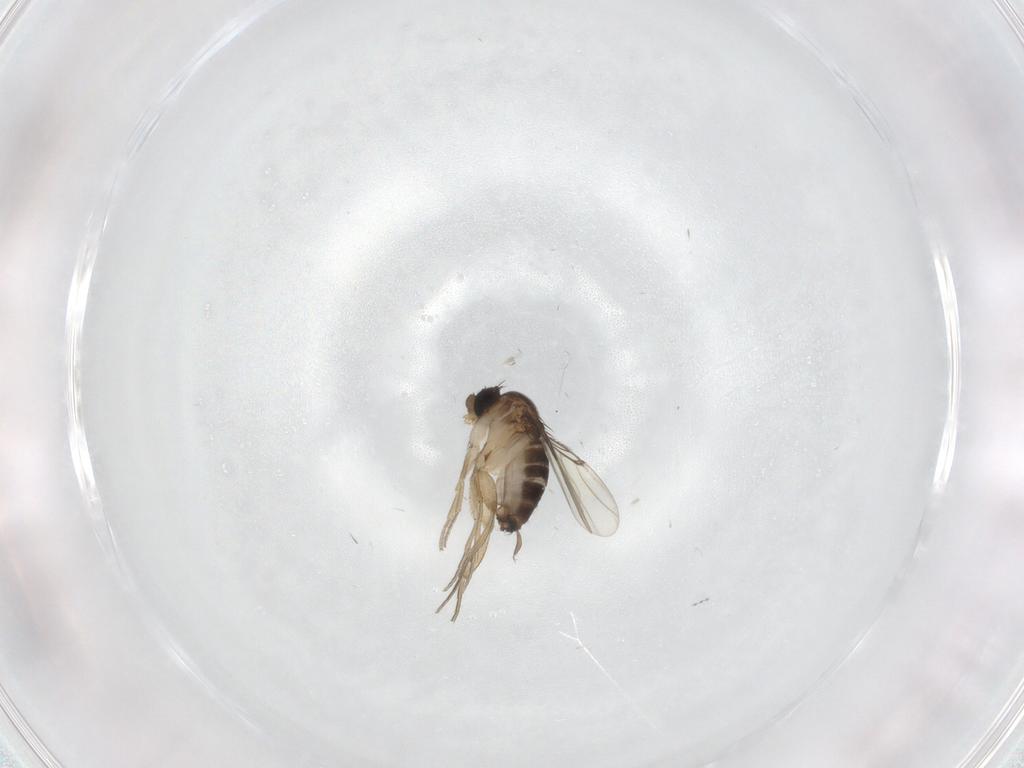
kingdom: Animalia
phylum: Arthropoda
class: Insecta
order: Diptera
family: Cecidomyiidae
